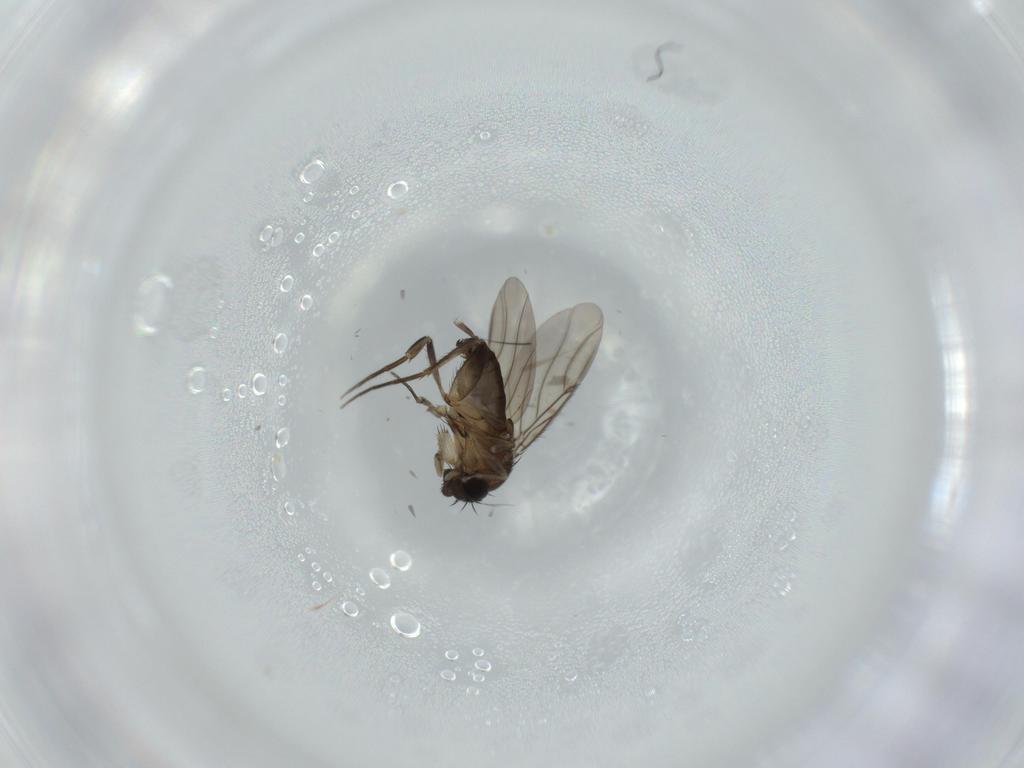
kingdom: Animalia
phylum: Arthropoda
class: Insecta
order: Diptera
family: Phoridae
